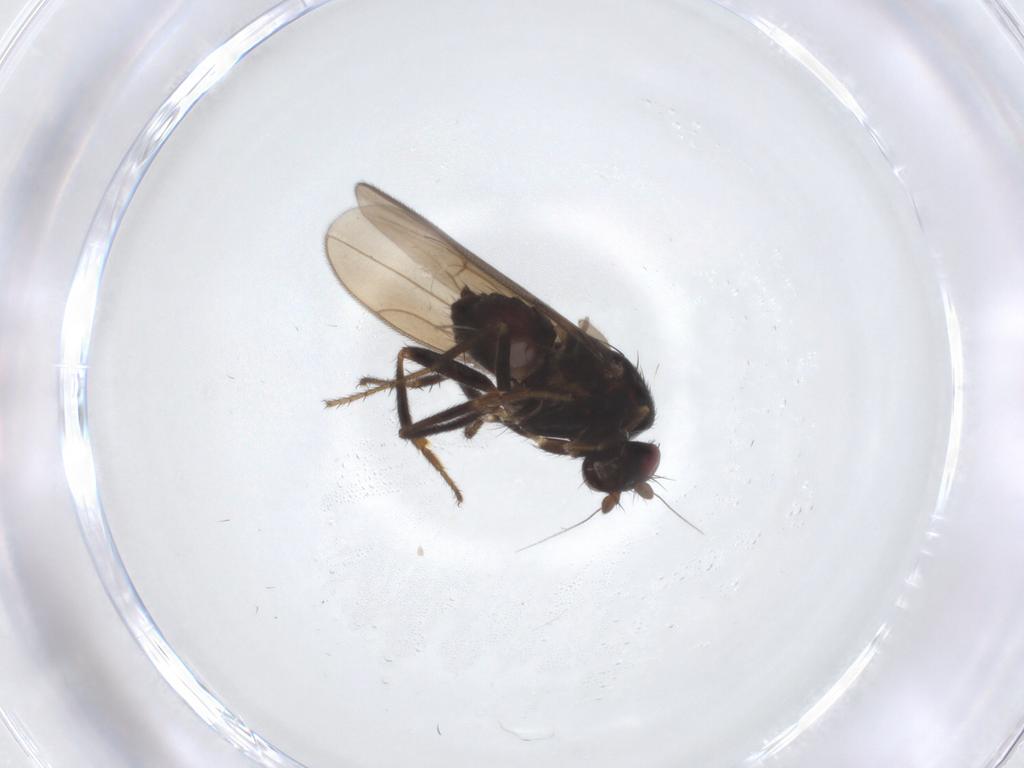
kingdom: Animalia
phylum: Arthropoda
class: Insecta
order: Diptera
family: Sphaeroceridae
